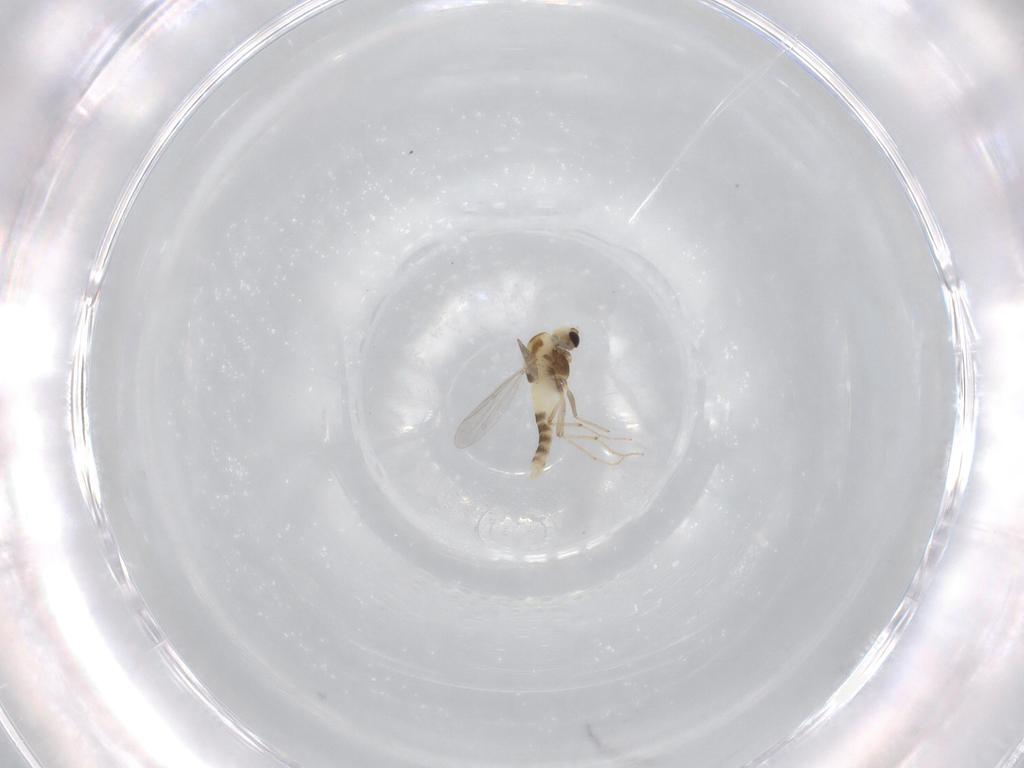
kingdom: Animalia
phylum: Arthropoda
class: Insecta
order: Diptera
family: Chironomidae
